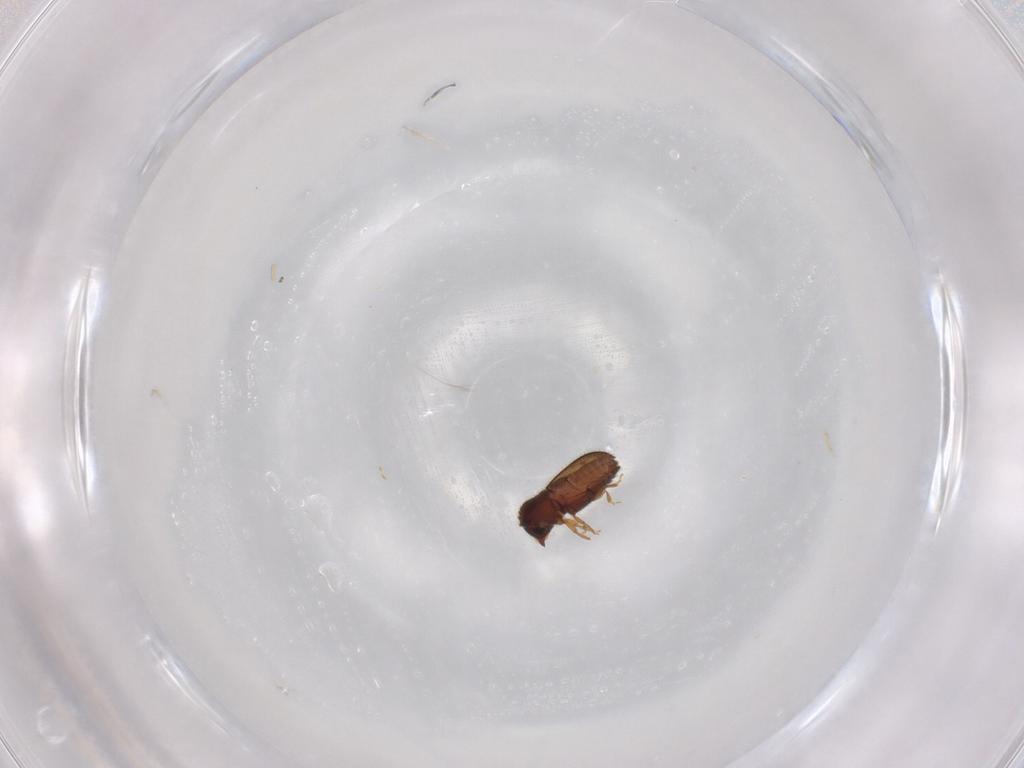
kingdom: Animalia
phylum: Arthropoda
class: Insecta
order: Coleoptera
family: Curculionidae
